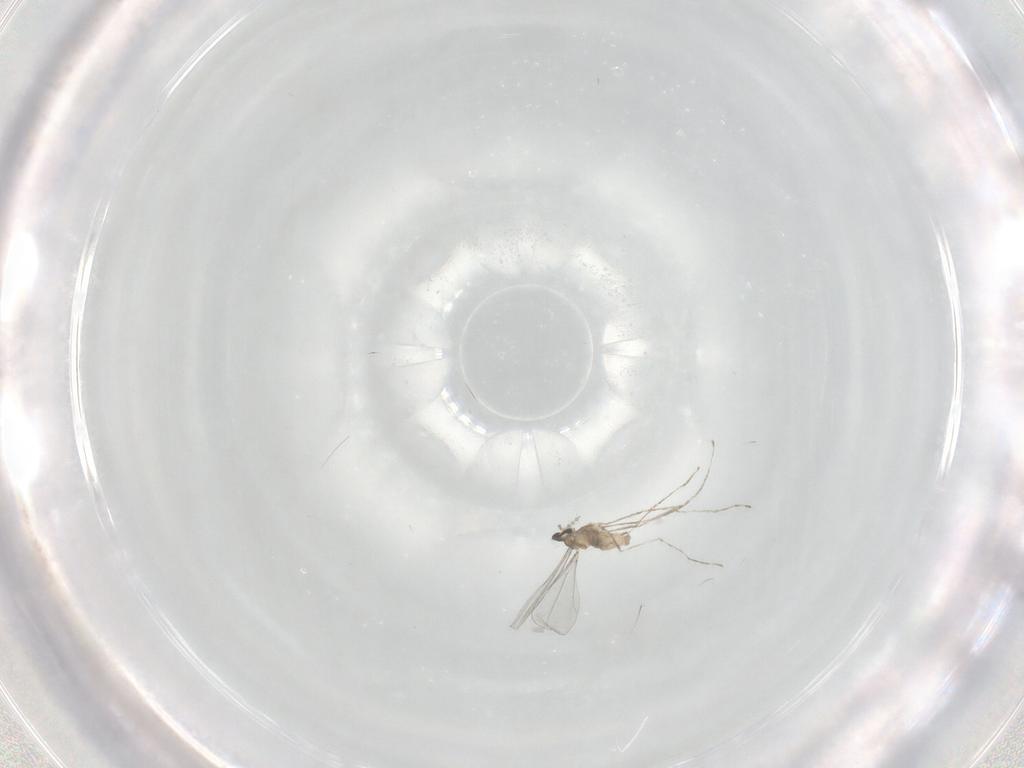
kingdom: Animalia
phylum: Arthropoda
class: Insecta
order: Diptera
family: Cecidomyiidae
